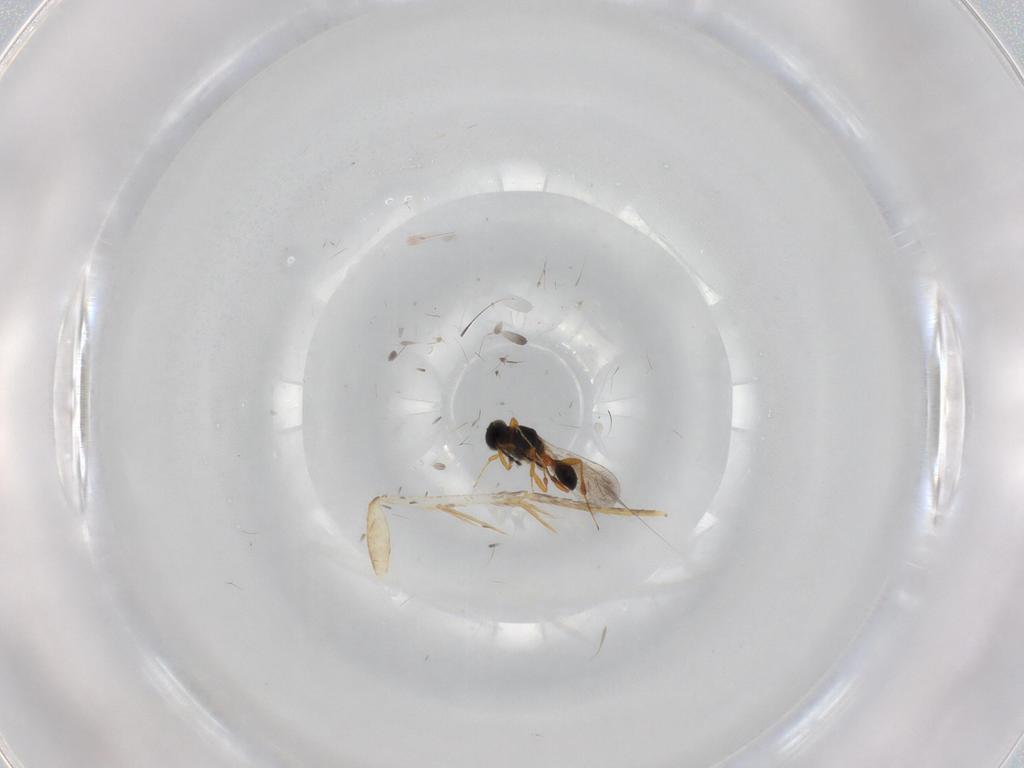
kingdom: Animalia
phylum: Arthropoda
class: Insecta
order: Hymenoptera
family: Platygastridae
